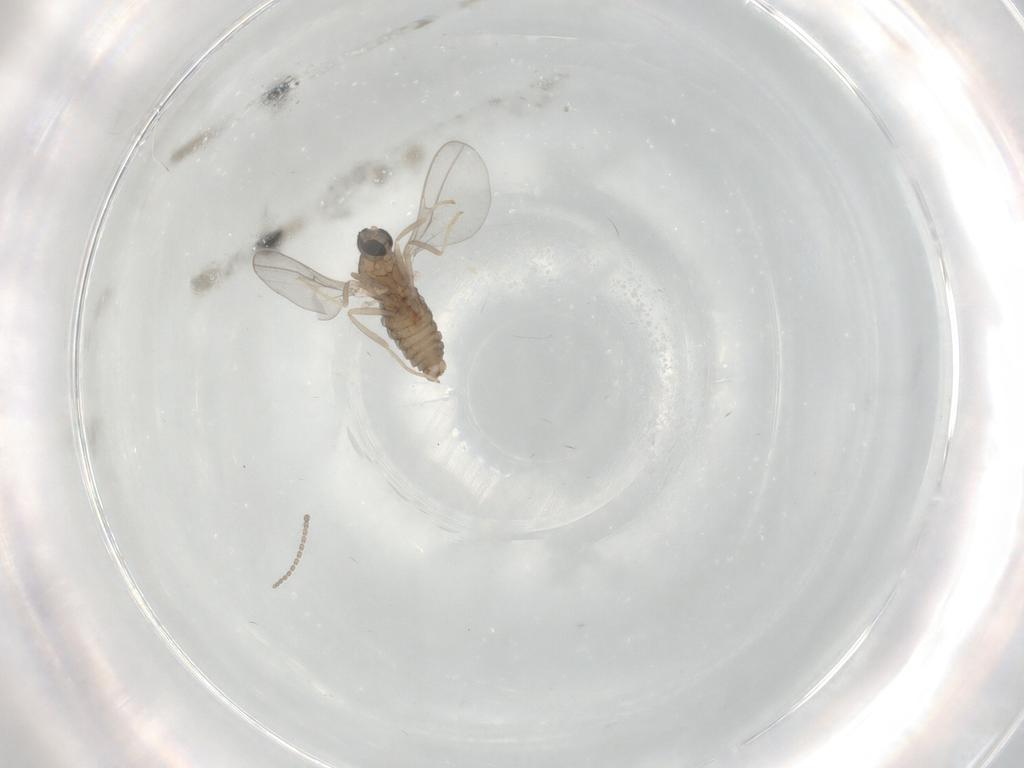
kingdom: Animalia
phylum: Arthropoda
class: Insecta
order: Diptera
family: Cecidomyiidae
